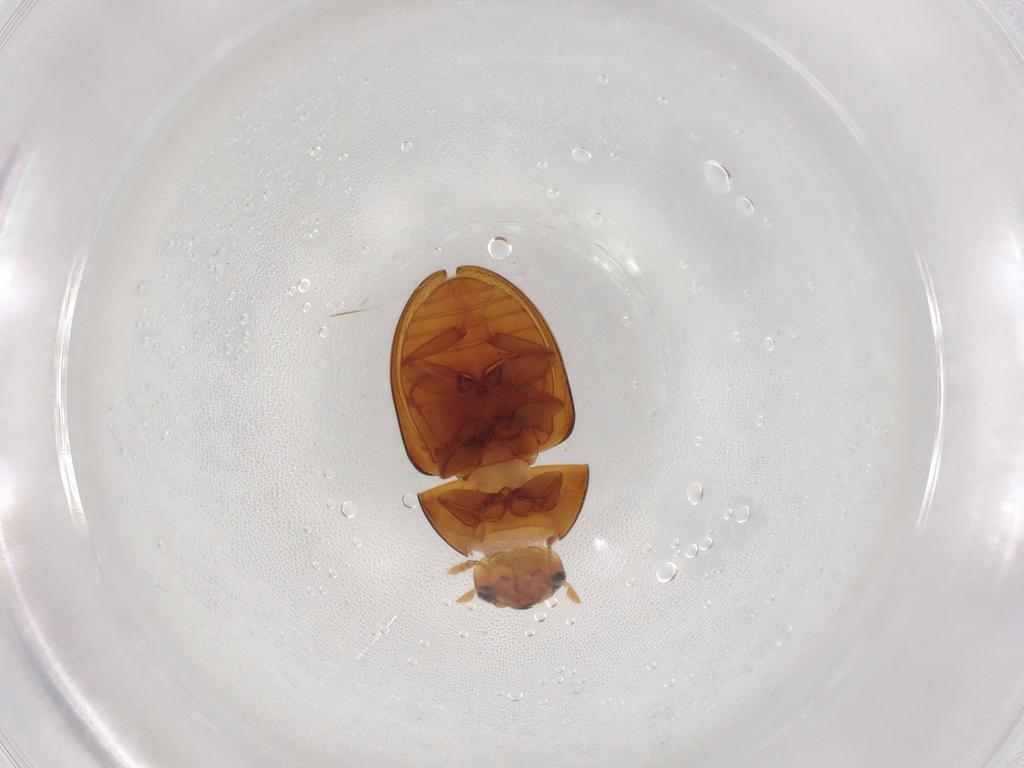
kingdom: Animalia
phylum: Arthropoda
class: Insecta
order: Coleoptera
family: Phalacridae
